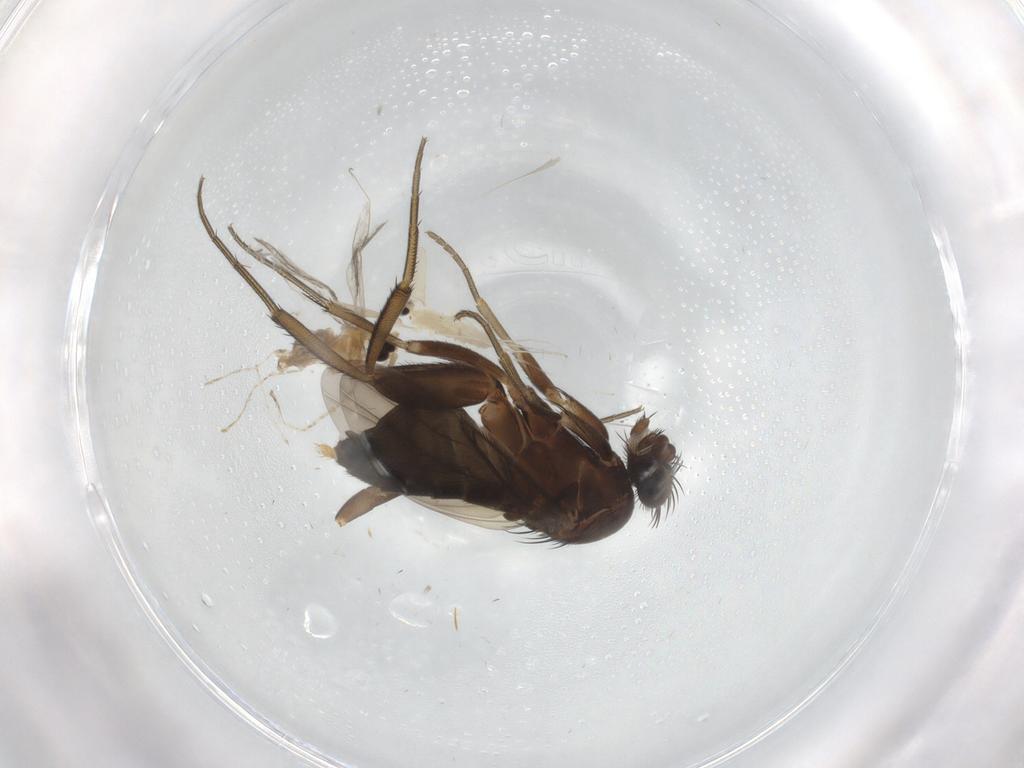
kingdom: Animalia
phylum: Arthropoda
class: Insecta
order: Diptera
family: Phoridae
